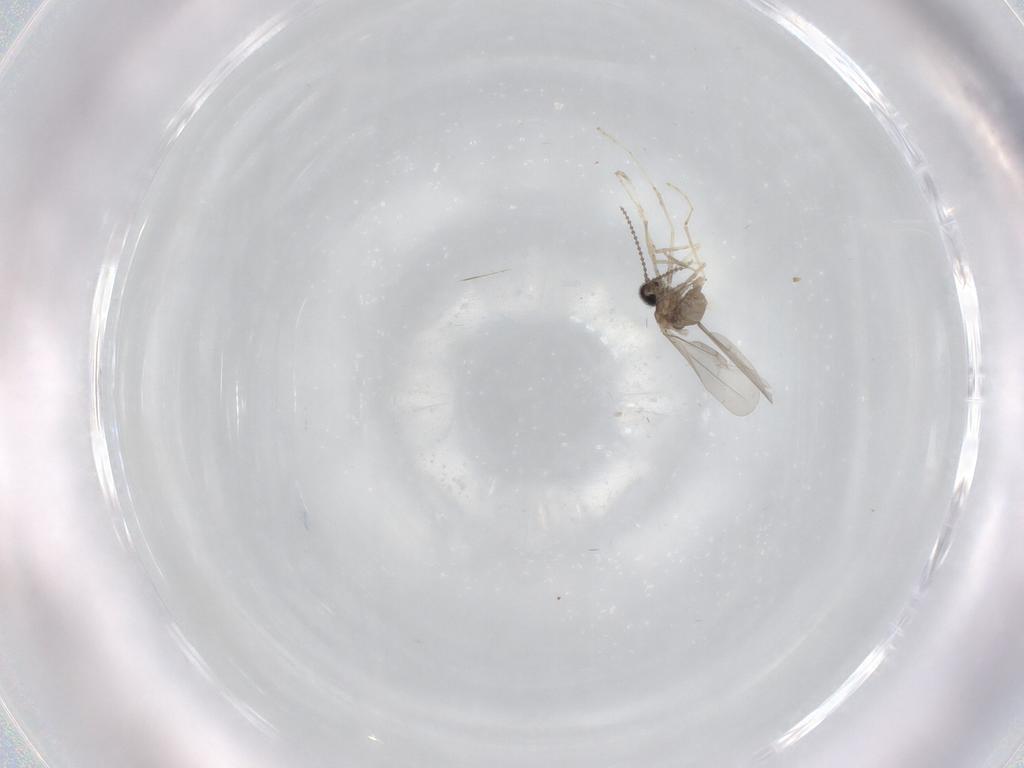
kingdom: Animalia
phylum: Arthropoda
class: Insecta
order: Diptera
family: Cecidomyiidae
